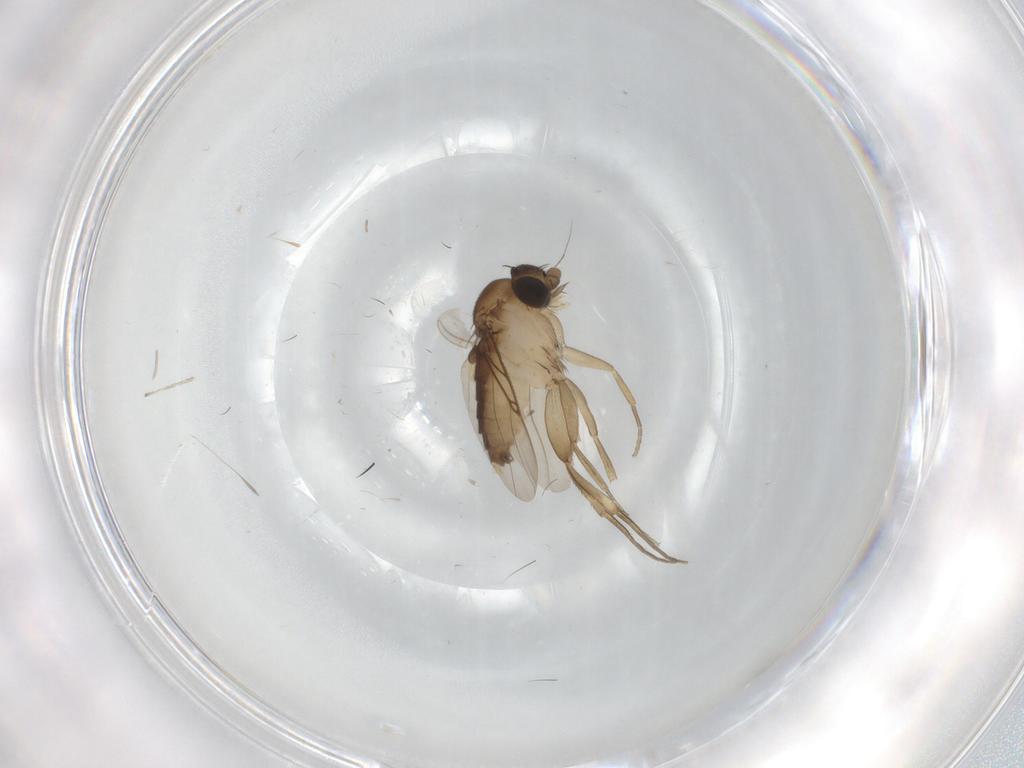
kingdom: Animalia
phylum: Arthropoda
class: Insecta
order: Diptera
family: Phoridae
